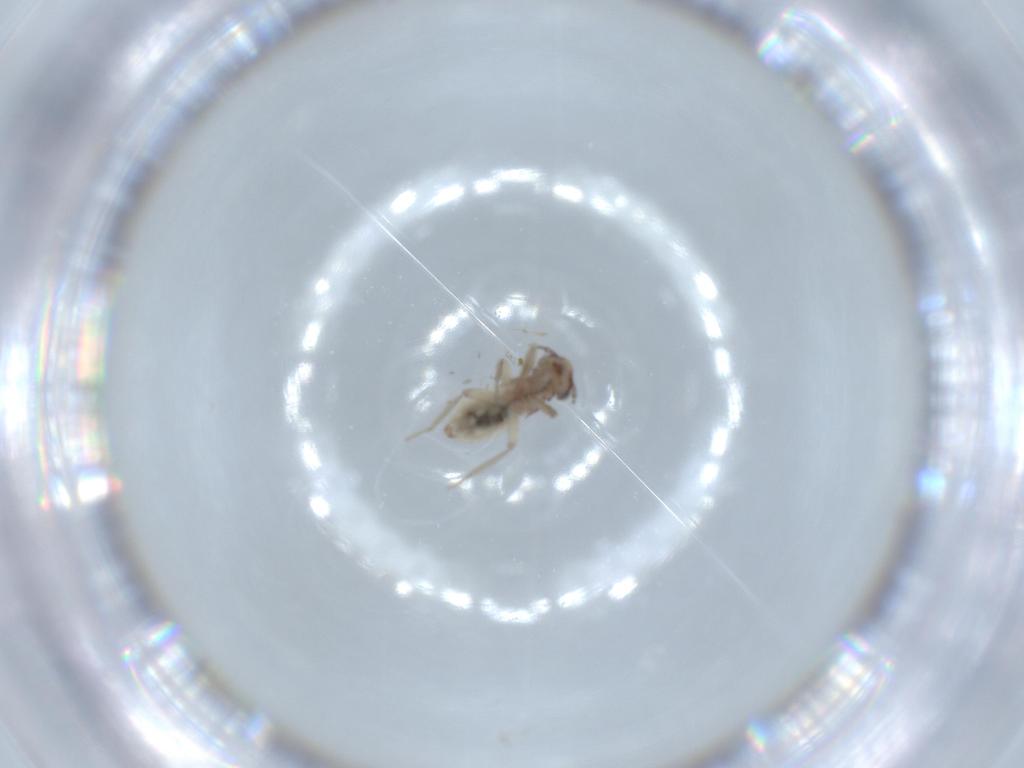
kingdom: Animalia
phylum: Arthropoda
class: Insecta
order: Psocodea
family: Lepidopsocidae
